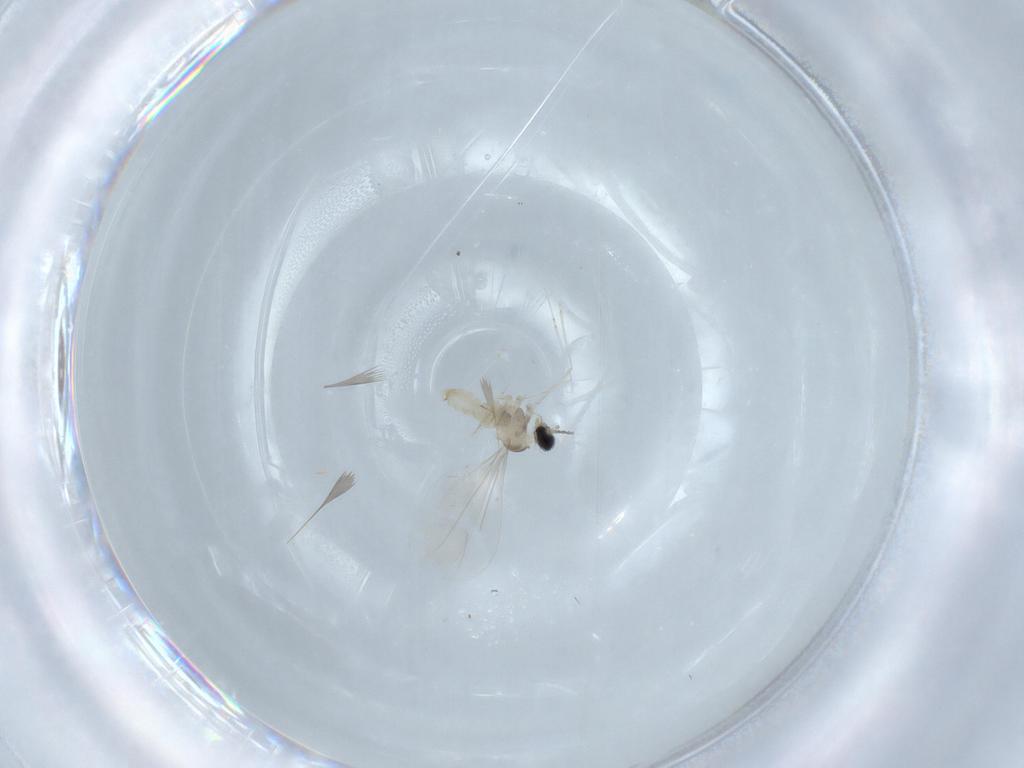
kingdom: Animalia
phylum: Arthropoda
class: Insecta
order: Diptera
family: Cecidomyiidae
